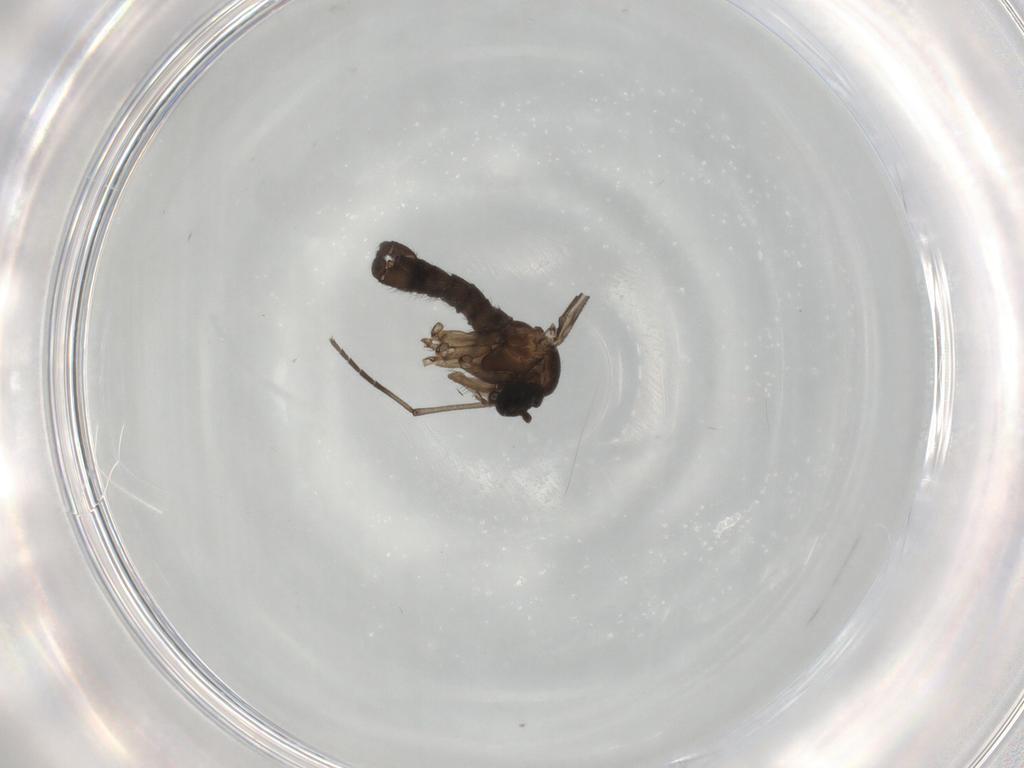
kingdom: Animalia
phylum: Arthropoda
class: Insecta
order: Diptera
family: Sciaridae
